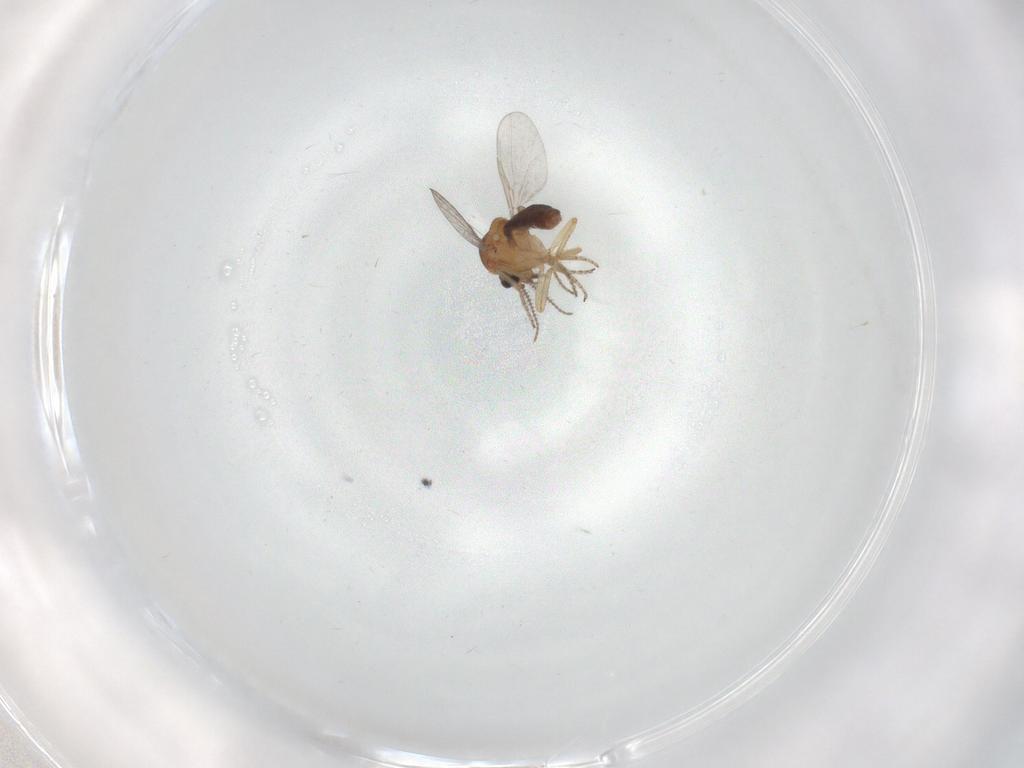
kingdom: Animalia
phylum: Arthropoda
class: Insecta
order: Diptera
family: Ceratopogonidae
